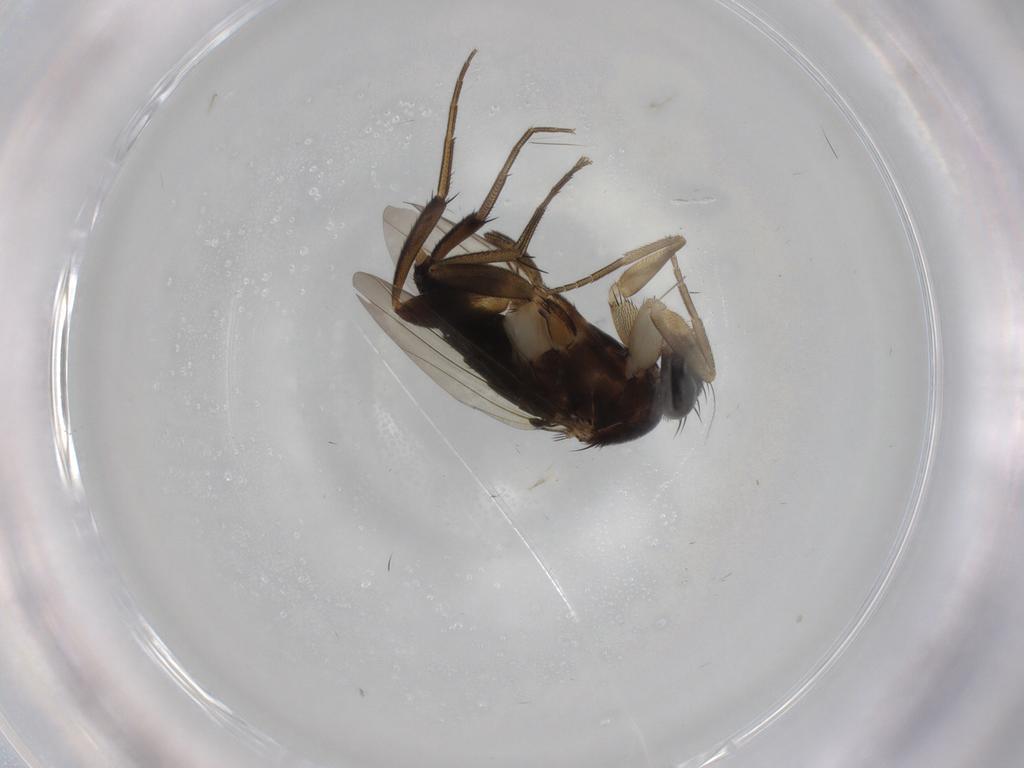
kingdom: Animalia
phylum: Arthropoda
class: Insecta
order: Diptera
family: Phoridae
